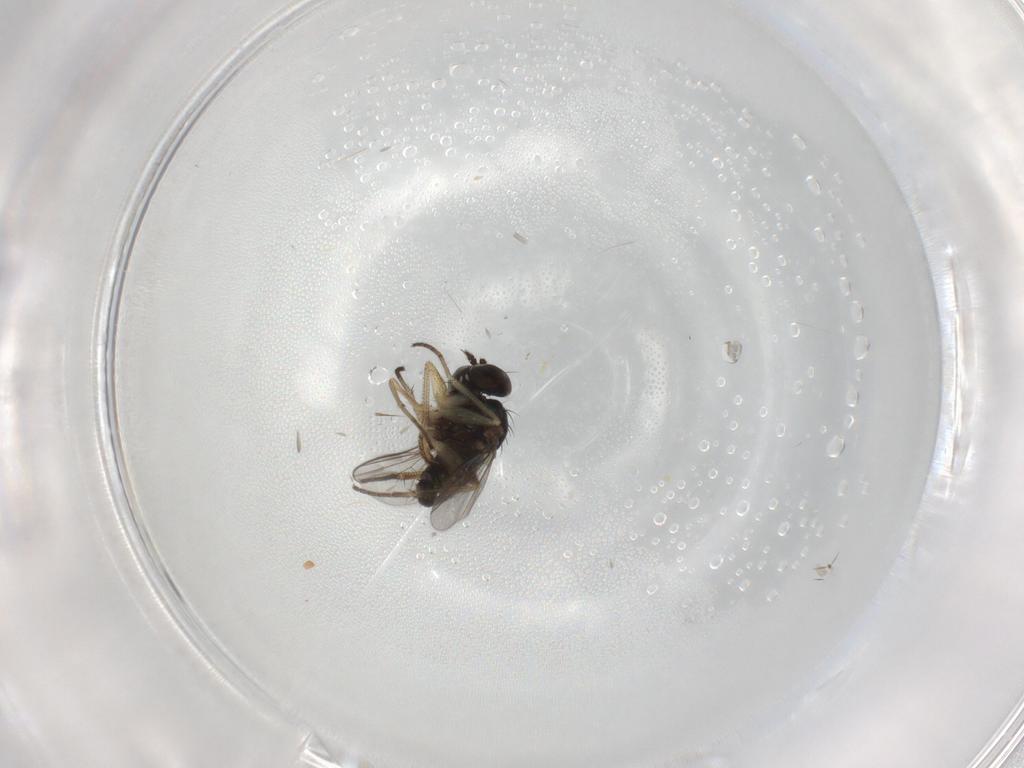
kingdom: Animalia
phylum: Arthropoda
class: Insecta
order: Diptera
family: Dolichopodidae
